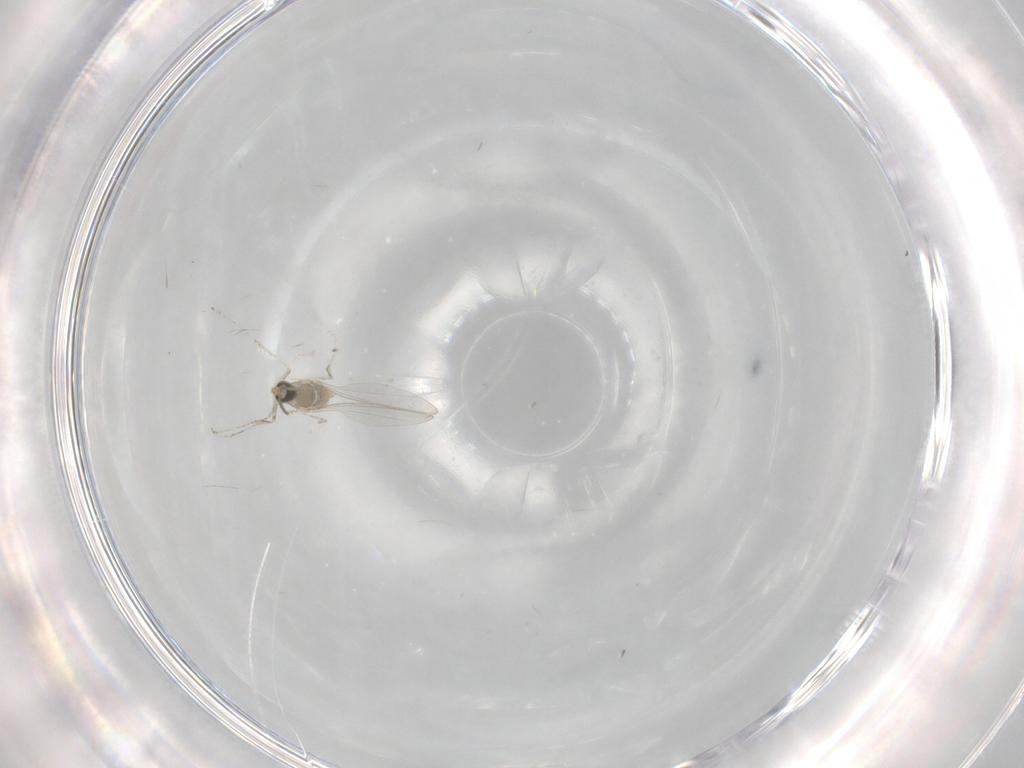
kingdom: Animalia
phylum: Arthropoda
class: Insecta
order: Diptera
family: Cecidomyiidae
